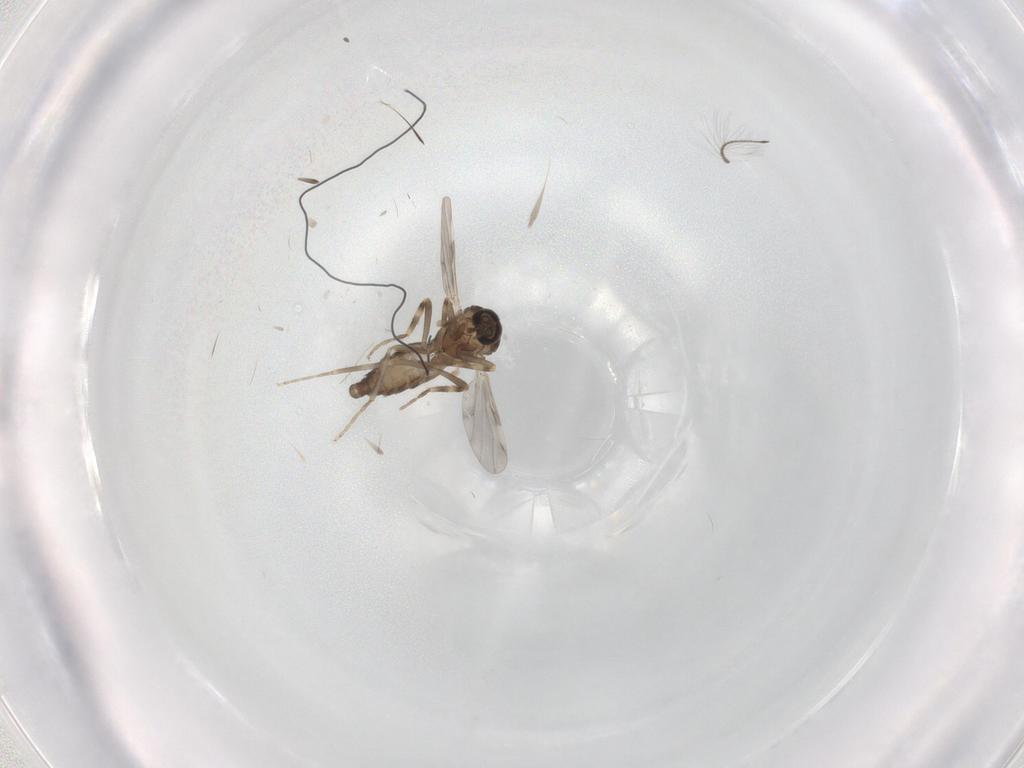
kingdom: Animalia
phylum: Arthropoda
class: Insecta
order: Diptera
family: Ceratopogonidae
